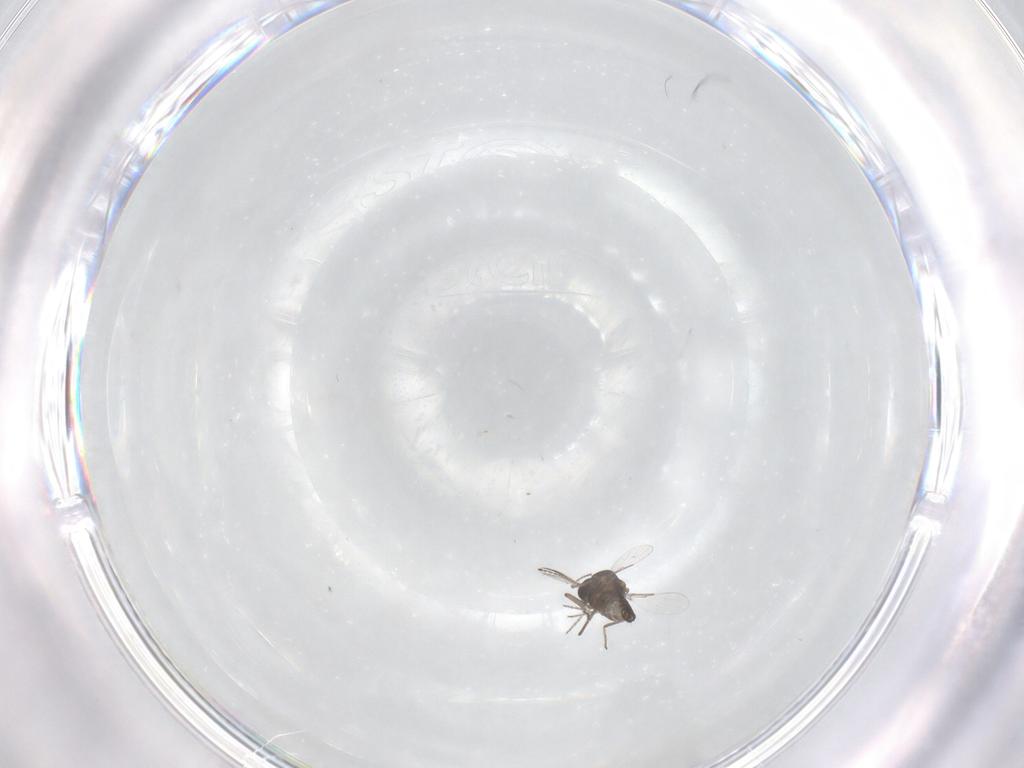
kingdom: Animalia
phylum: Arthropoda
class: Insecta
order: Diptera
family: Ceratopogonidae
